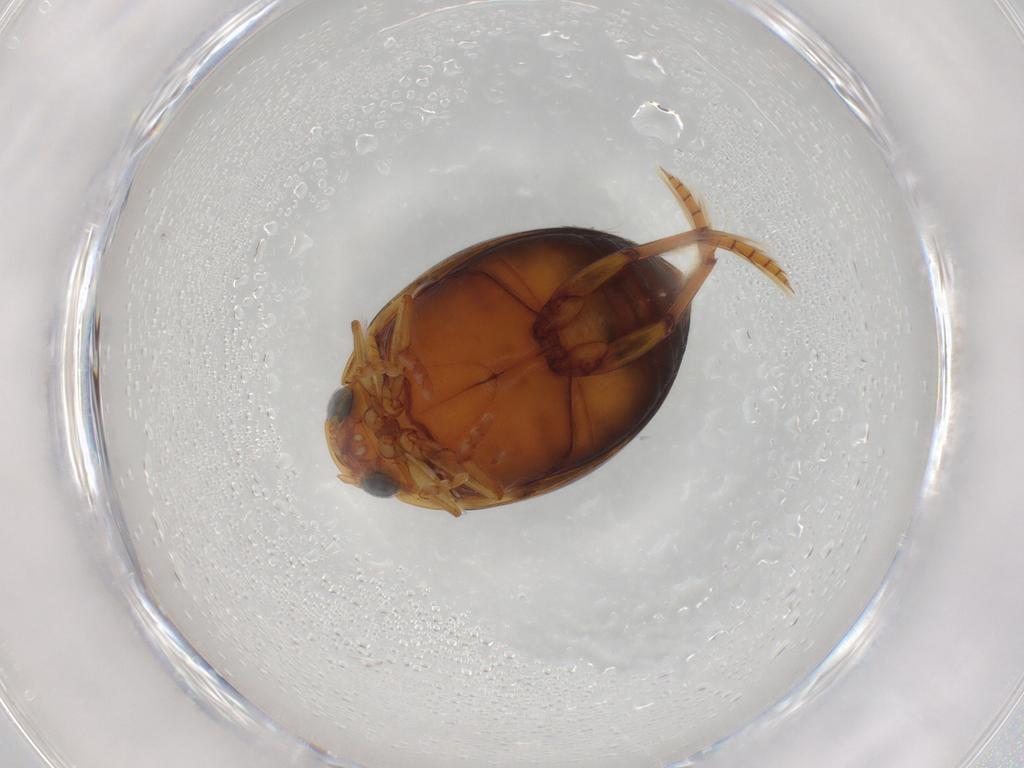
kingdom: Animalia
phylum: Arthropoda
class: Insecta
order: Coleoptera
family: Dytiscidae
